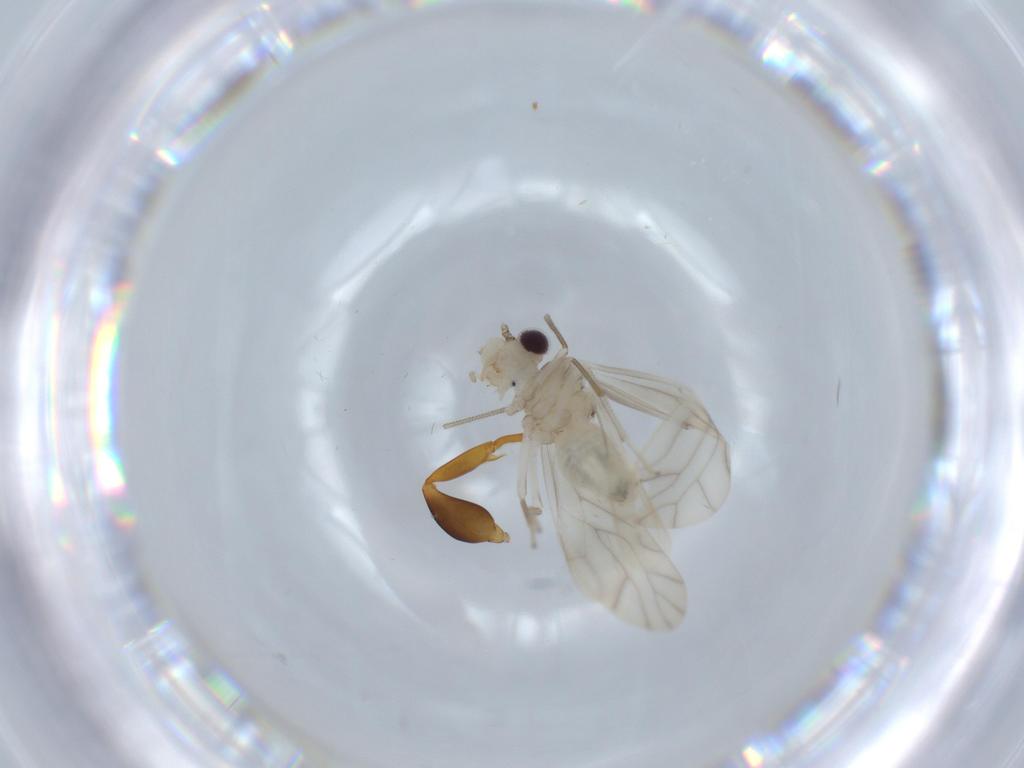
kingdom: Animalia
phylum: Arthropoda
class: Insecta
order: Psocodea
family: Caeciliusidae
